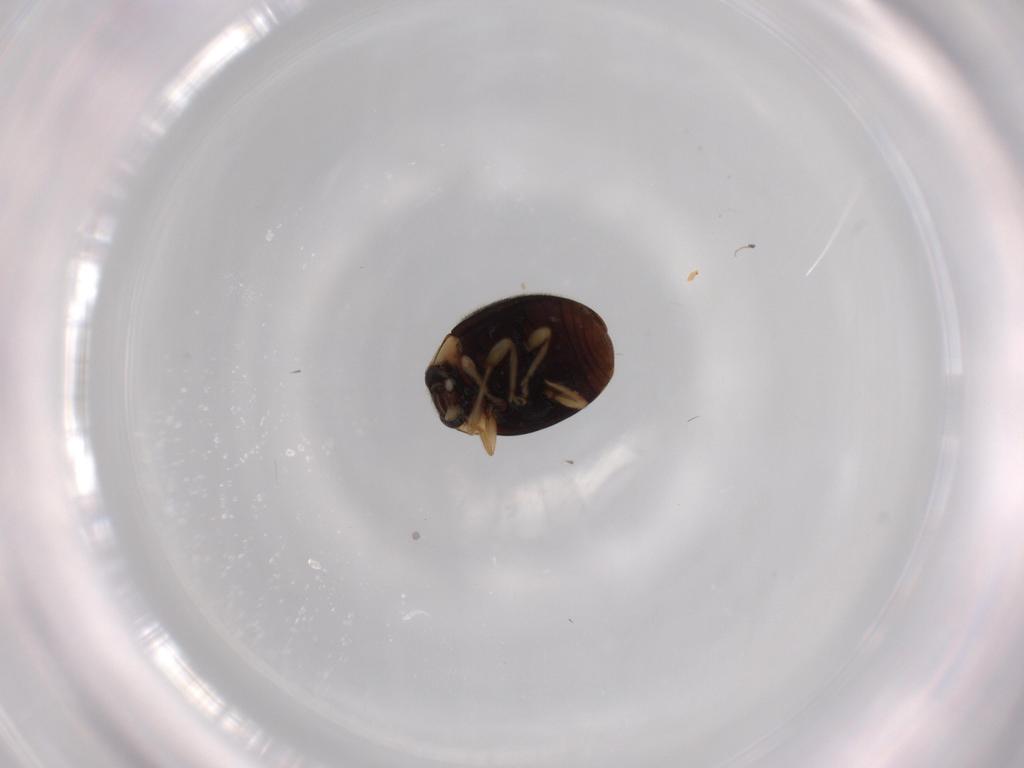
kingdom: Animalia
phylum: Arthropoda
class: Insecta
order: Coleoptera
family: Coccinellidae
